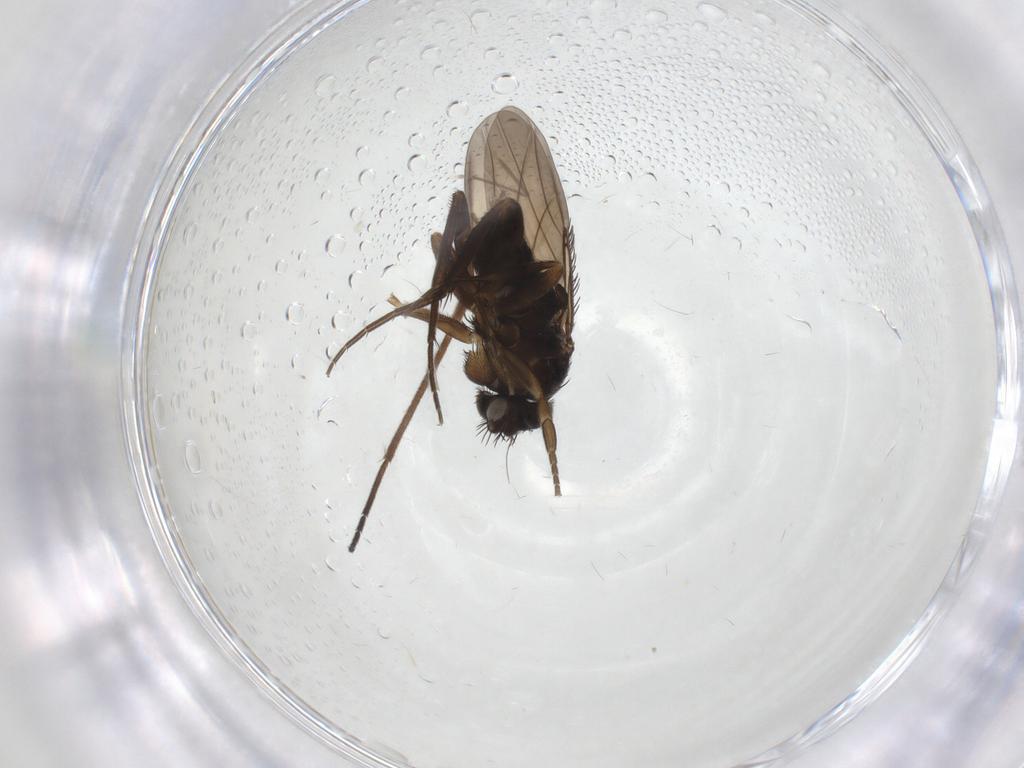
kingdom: Animalia
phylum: Arthropoda
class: Insecta
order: Diptera
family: Phoridae
